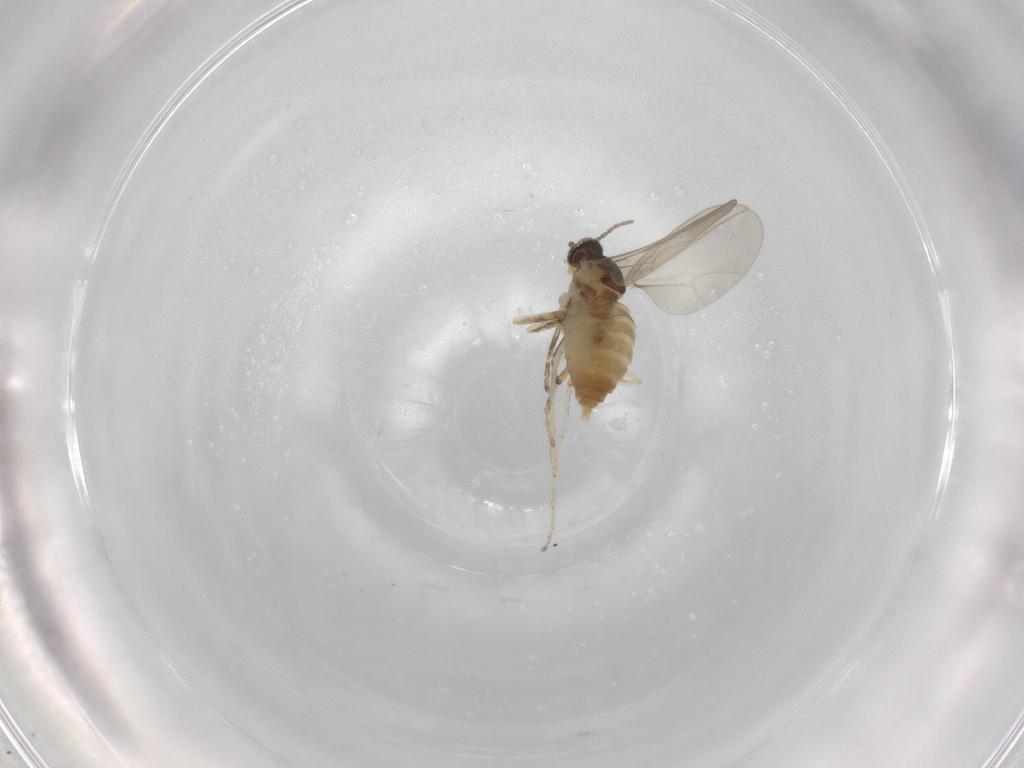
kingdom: Animalia
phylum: Arthropoda
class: Insecta
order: Diptera
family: Cecidomyiidae
